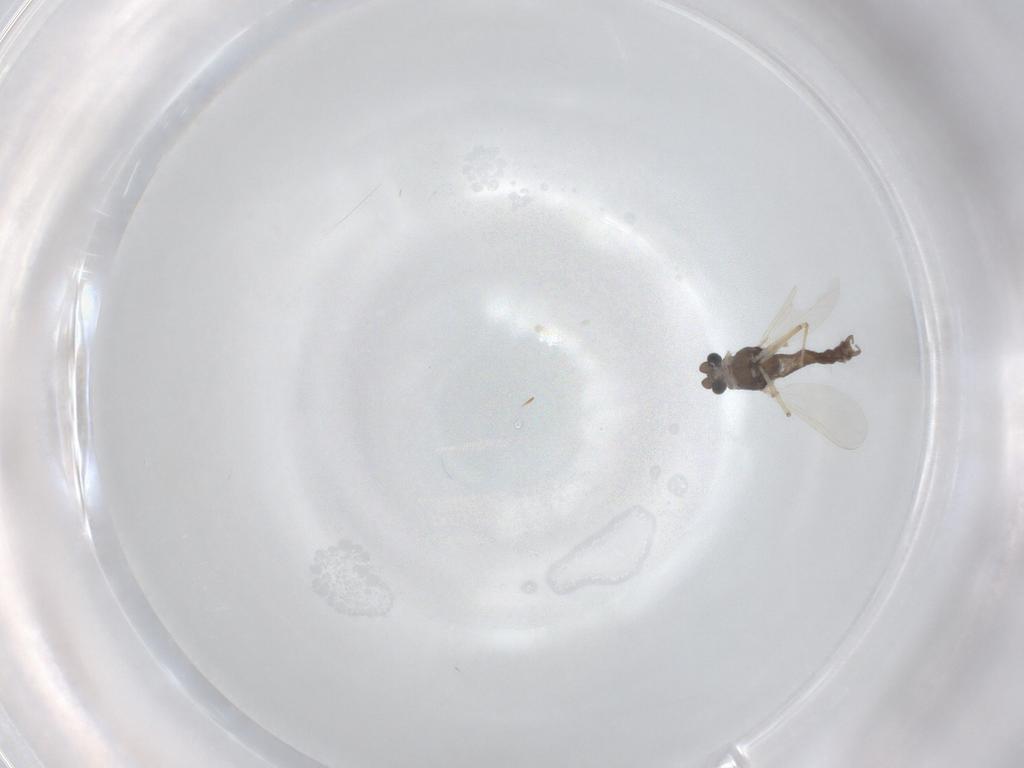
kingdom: Animalia
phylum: Arthropoda
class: Insecta
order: Diptera
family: Chironomidae
